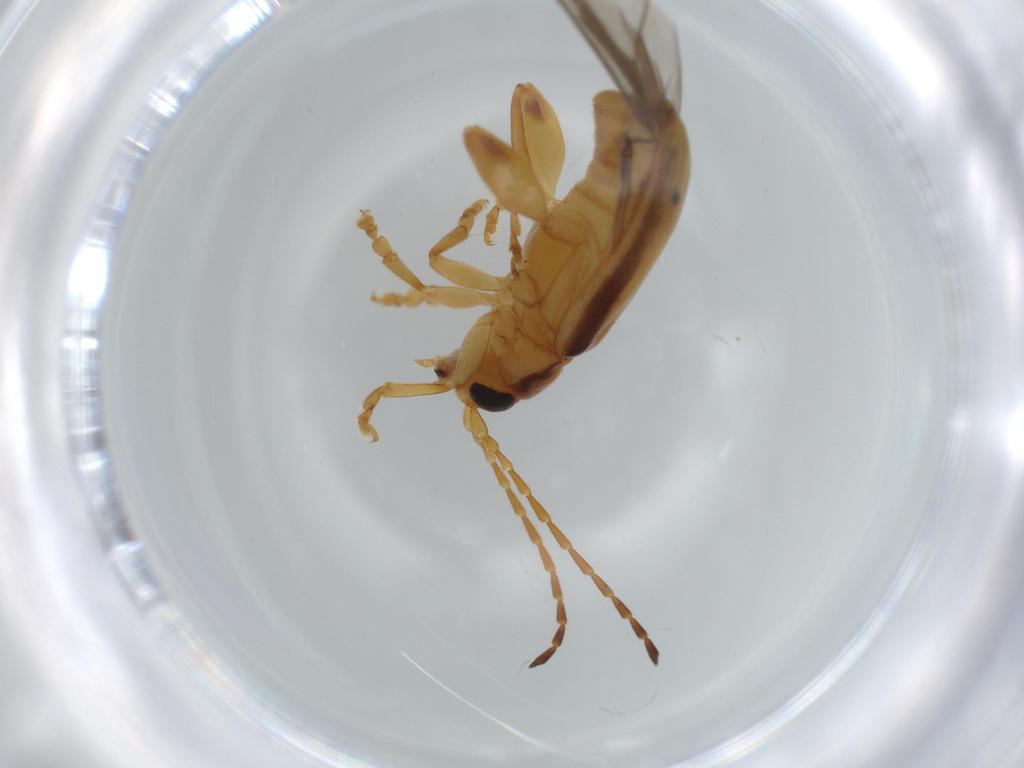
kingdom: Animalia
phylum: Arthropoda
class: Insecta
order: Coleoptera
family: Chrysomelidae
